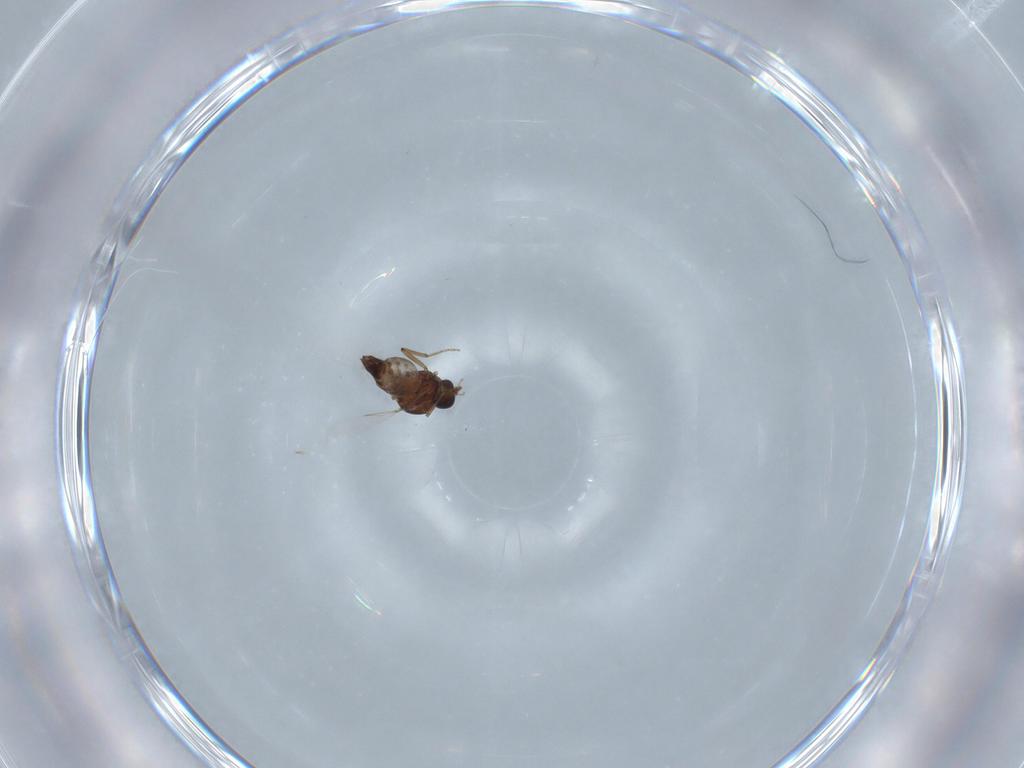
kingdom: Animalia
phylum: Arthropoda
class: Insecta
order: Diptera
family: Ceratopogonidae
